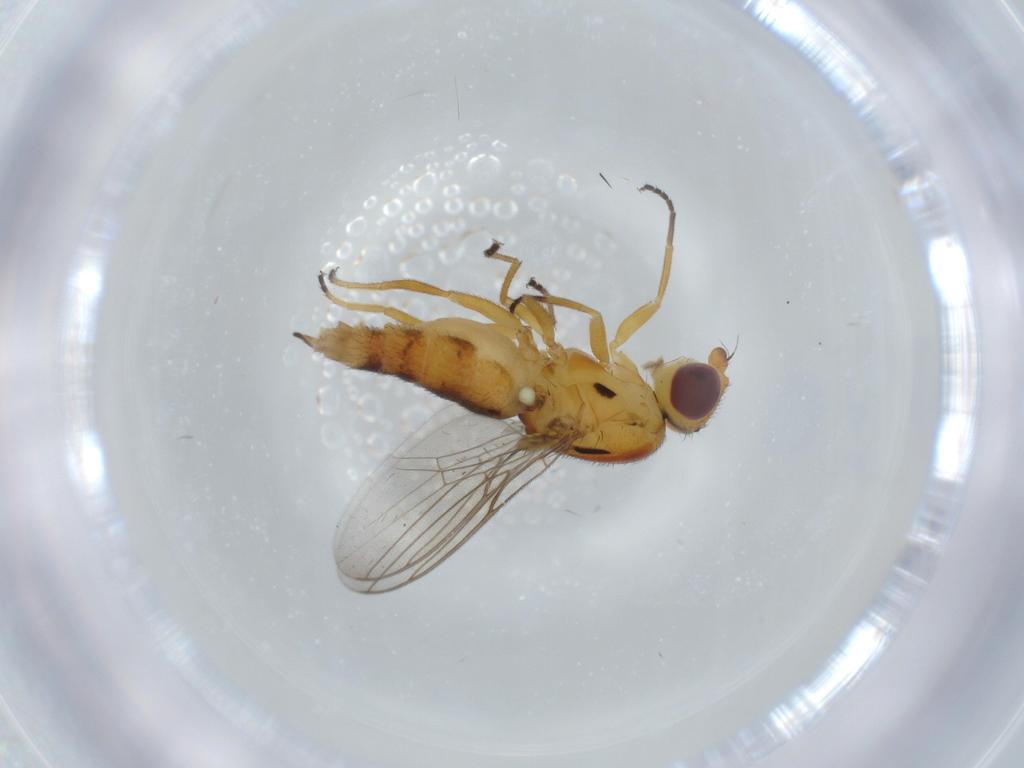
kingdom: Animalia
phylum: Arthropoda
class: Insecta
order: Diptera
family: Chloropidae
